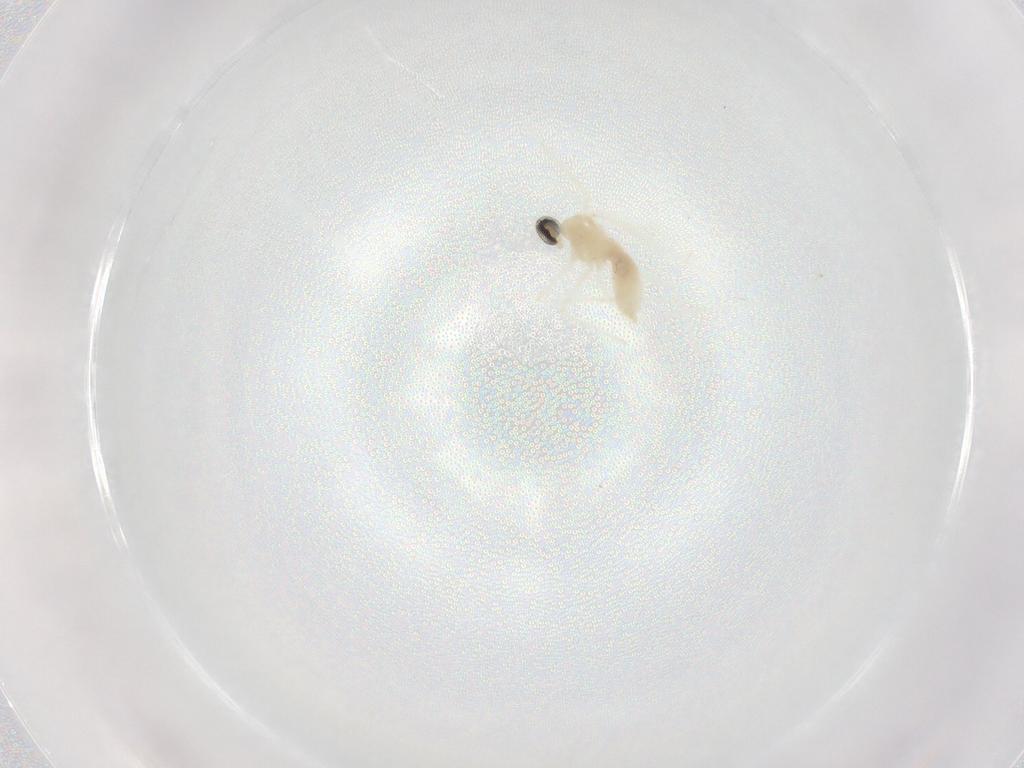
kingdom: Animalia
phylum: Arthropoda
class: Insecta
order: Diptera
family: Cecidomyiidae
